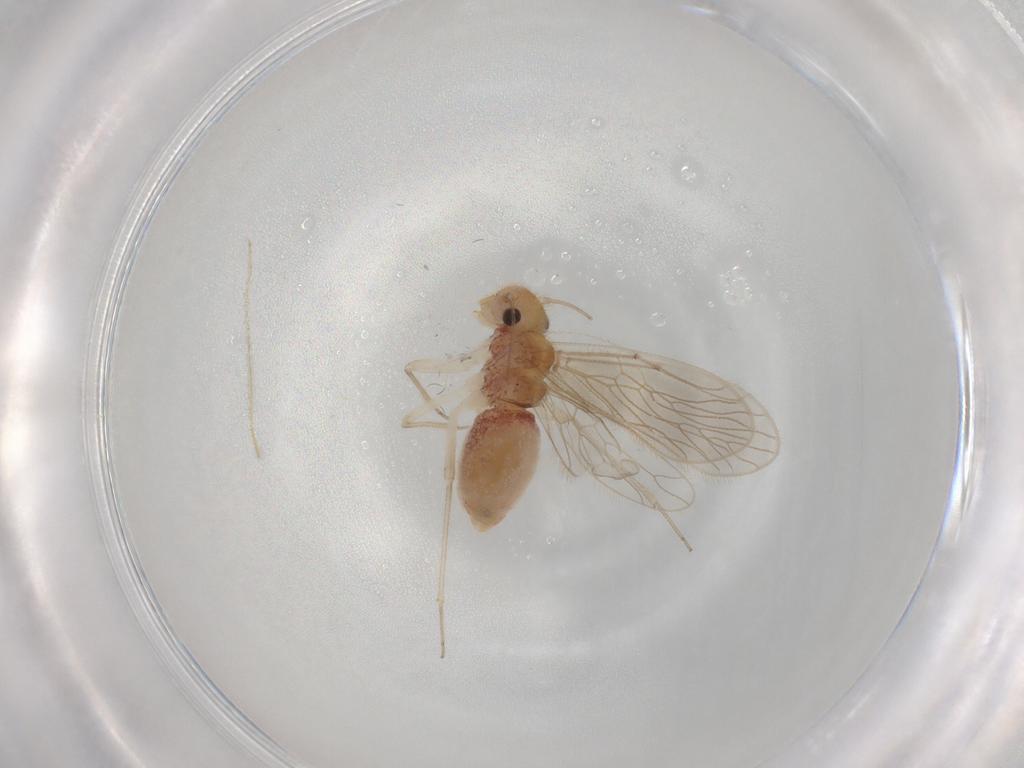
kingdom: Animalia
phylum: Arthropoda
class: Insecta
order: Psocodea
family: Cladiopsocidae
